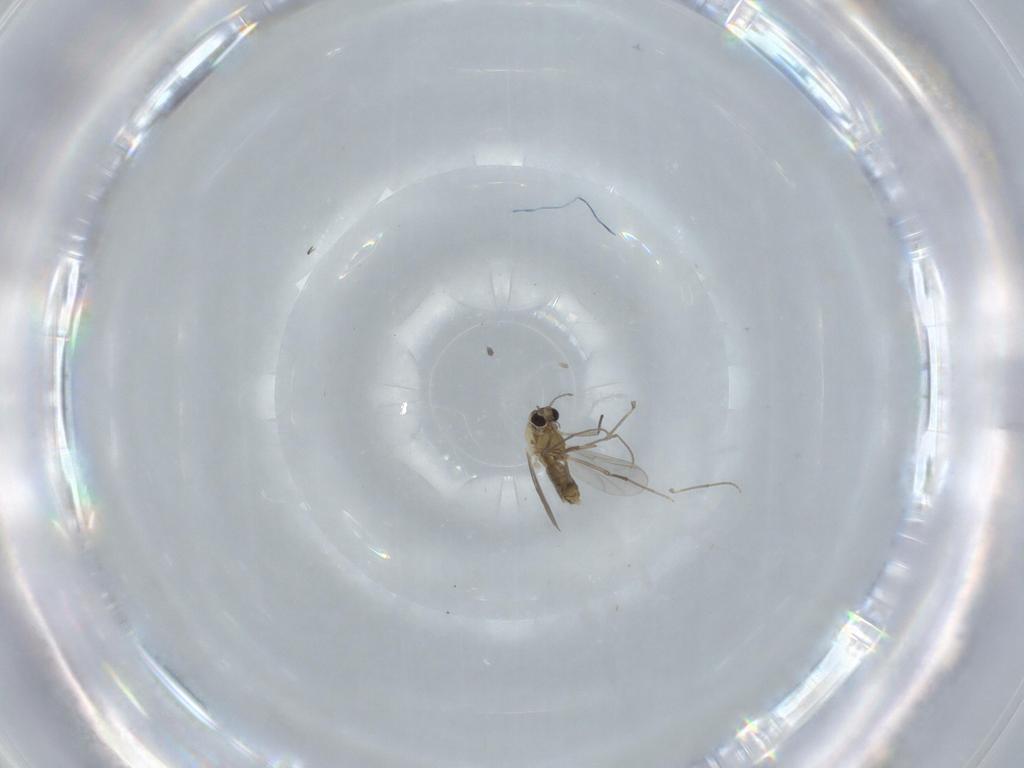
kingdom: Animalia
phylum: Arthropoda
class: Insecta
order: Diptera
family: Chironomidae
